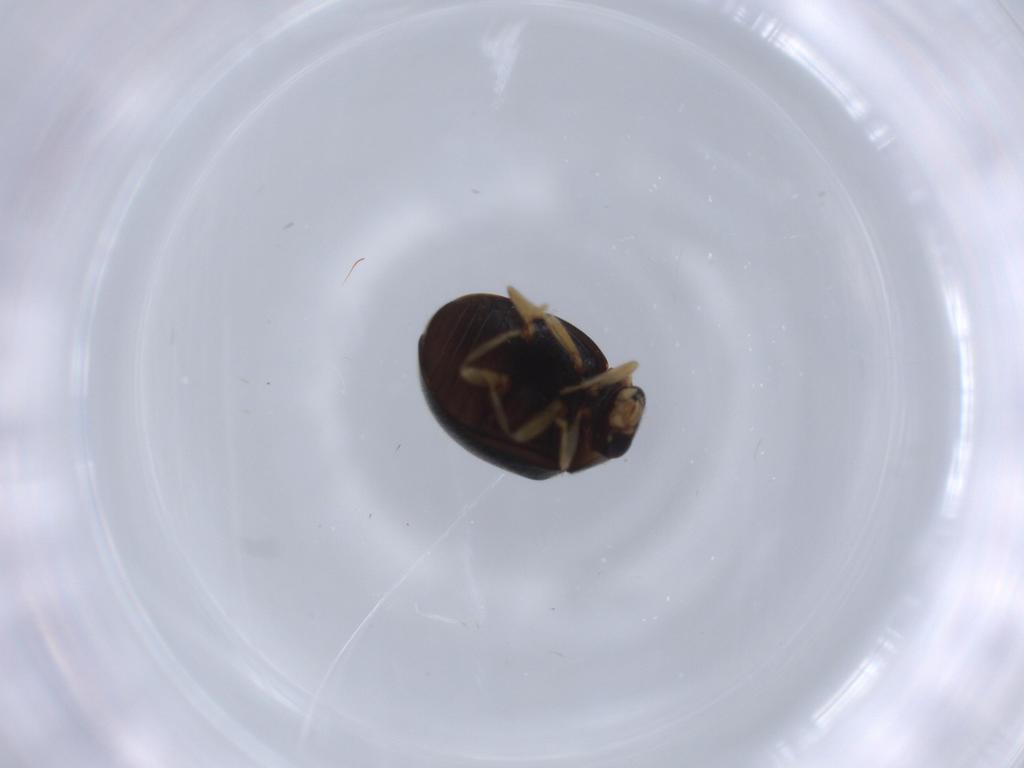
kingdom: Animalia
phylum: Arthropoda
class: Insecta
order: Coleoptera
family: Coccinellidae
